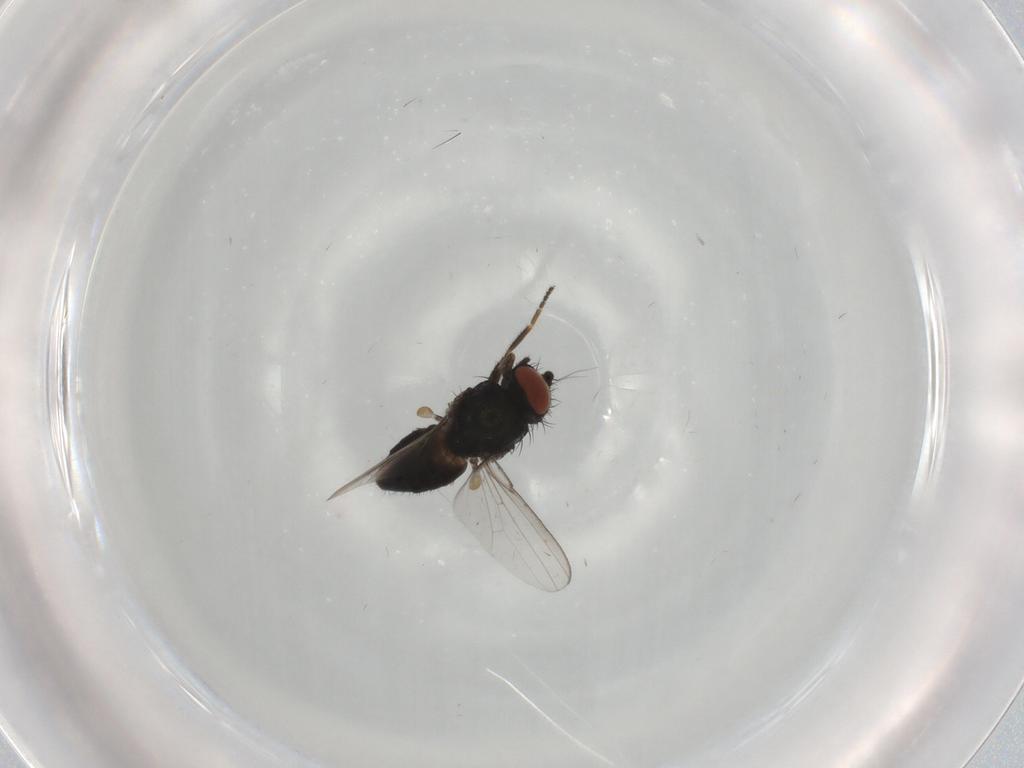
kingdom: Animalia
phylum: Arthropoda
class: Insecta
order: Diptera
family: Milichiidae
